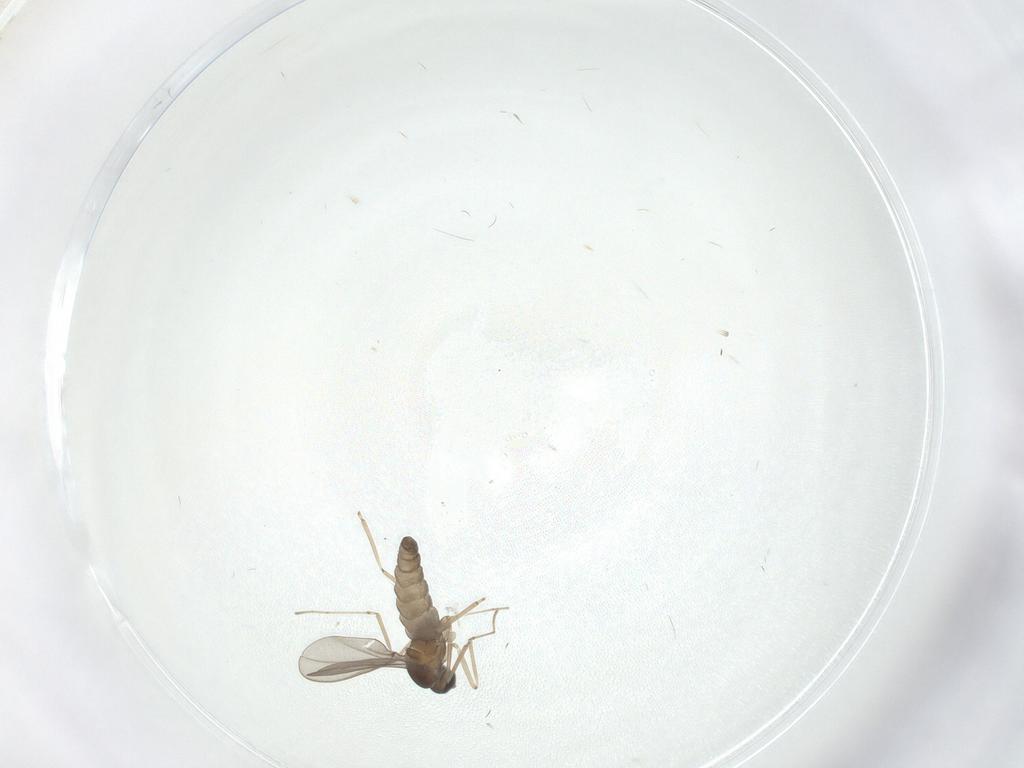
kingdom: Animalia
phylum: Arthropoda
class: Insecta
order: Diptera
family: Cecidomyiidae
